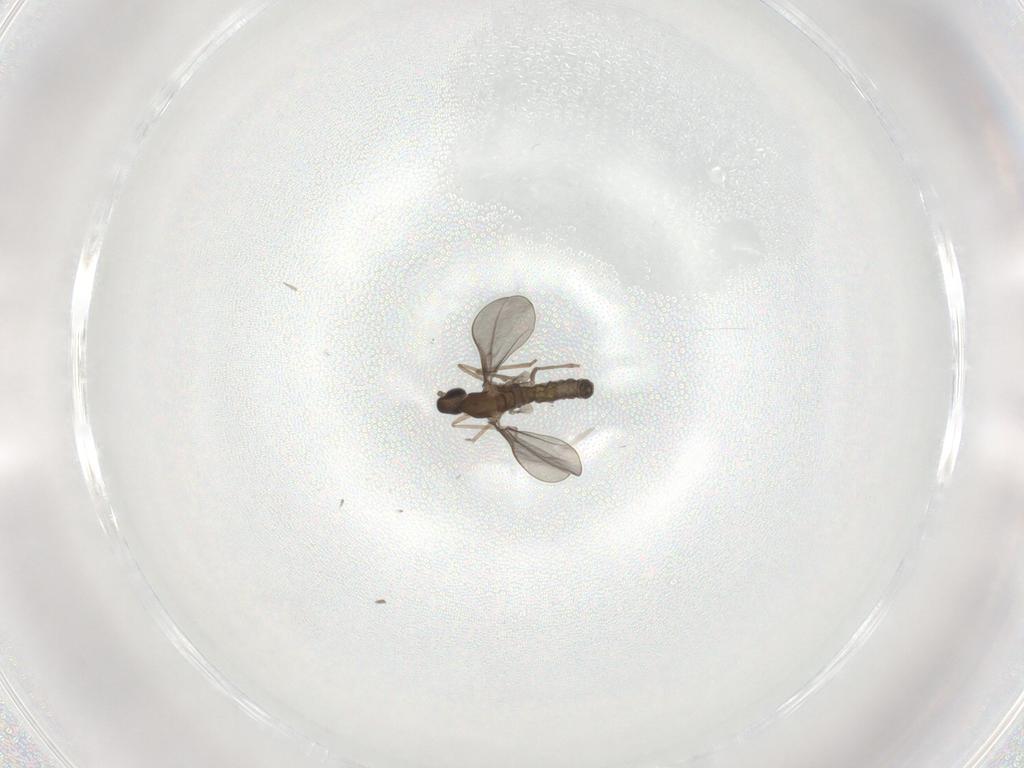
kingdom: Animalia
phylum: Arthropoda
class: Insecta
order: Diptera
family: Cecidomyiidae
